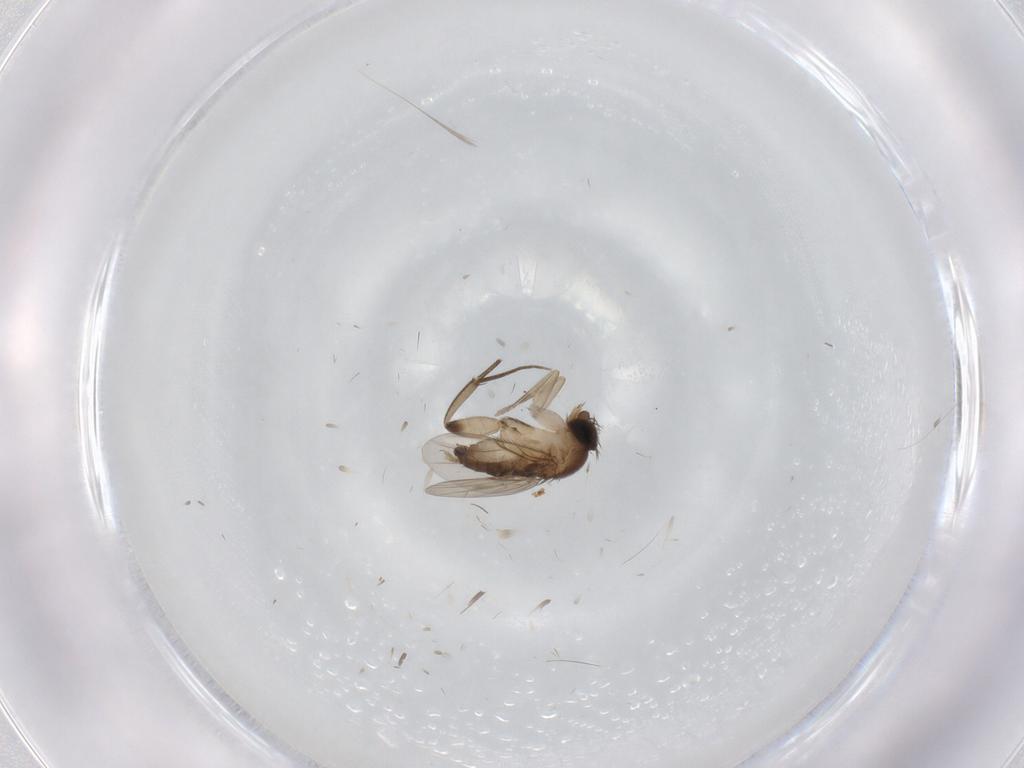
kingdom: Animalia
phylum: Arthropoda
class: Insecta
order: Diptera
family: Phoridae
